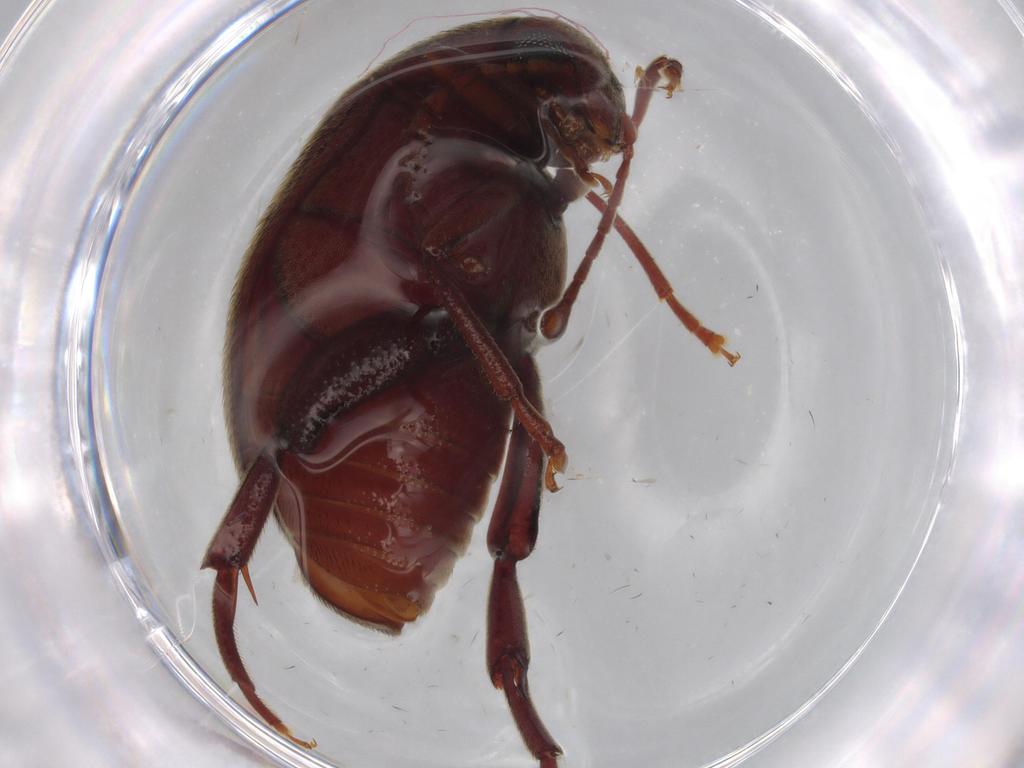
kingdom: Animalia
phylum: Arthropoda
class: Insecta
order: Coleoptera
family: Chrysomelidae
